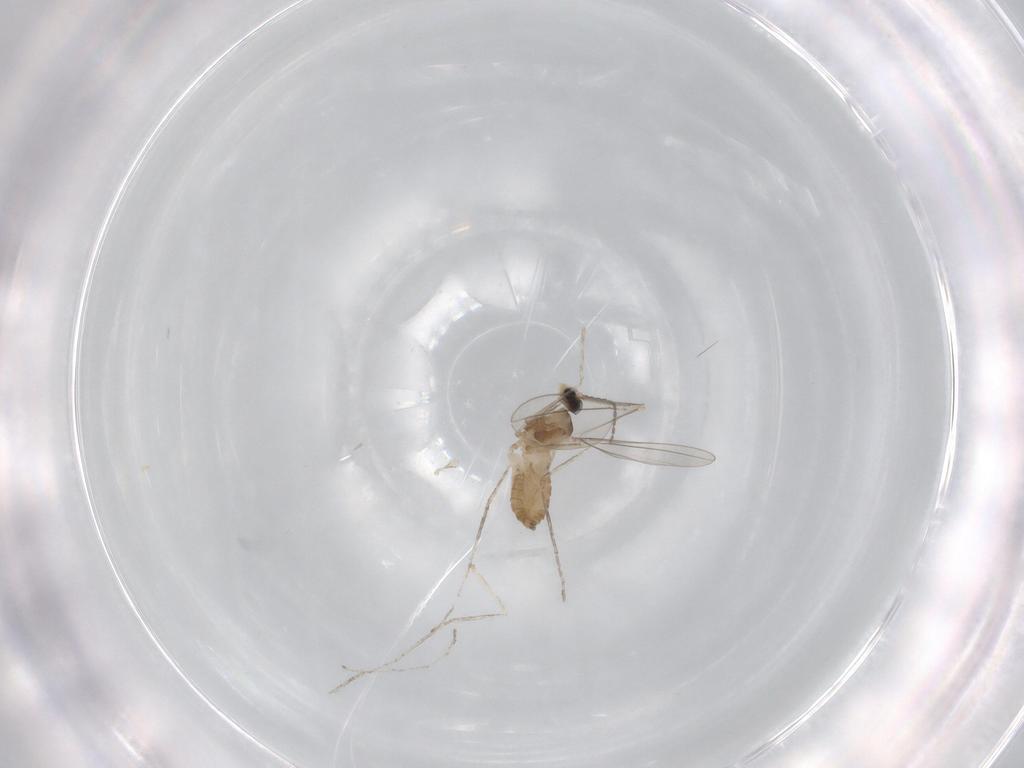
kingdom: Animalia
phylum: Arthropoda
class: Insecta
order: Diptera
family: Cecidomyiidae
